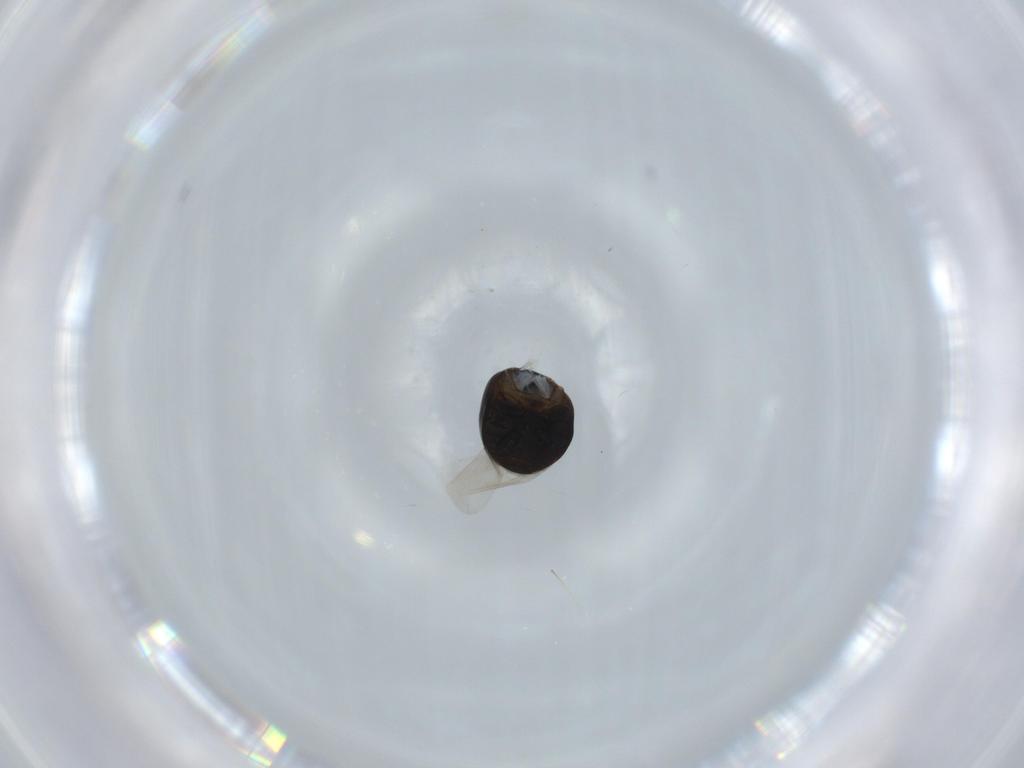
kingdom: Animalia
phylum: Arthropoda
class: Insecta
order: Coleoptera
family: Cybocephalidae
